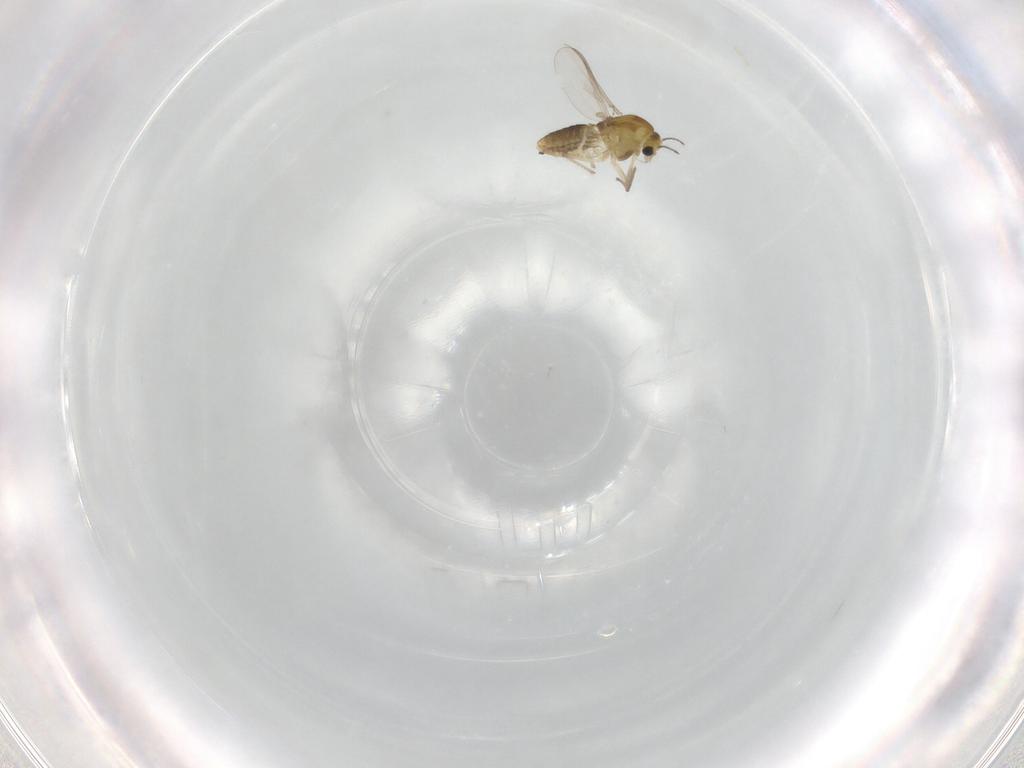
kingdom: Animalia
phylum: Arthropoda
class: Insecta
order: Diptera
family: Chironomidae
